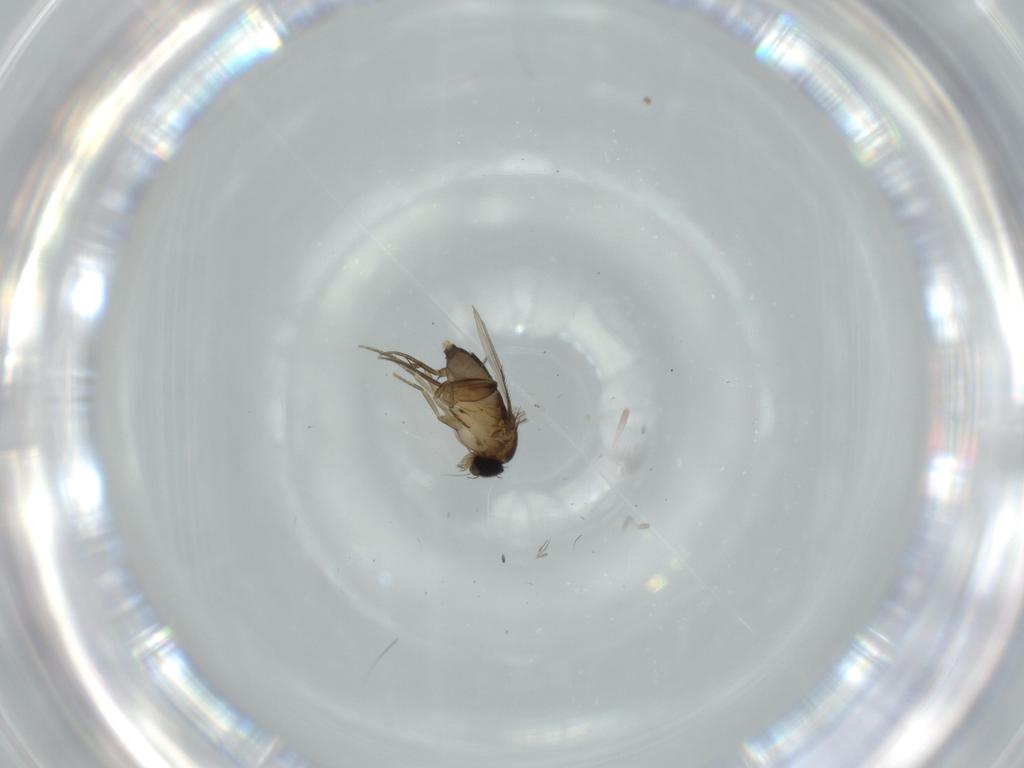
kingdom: Animalia
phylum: Arthropoda
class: Insecta
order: Diptera
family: Phoridae
